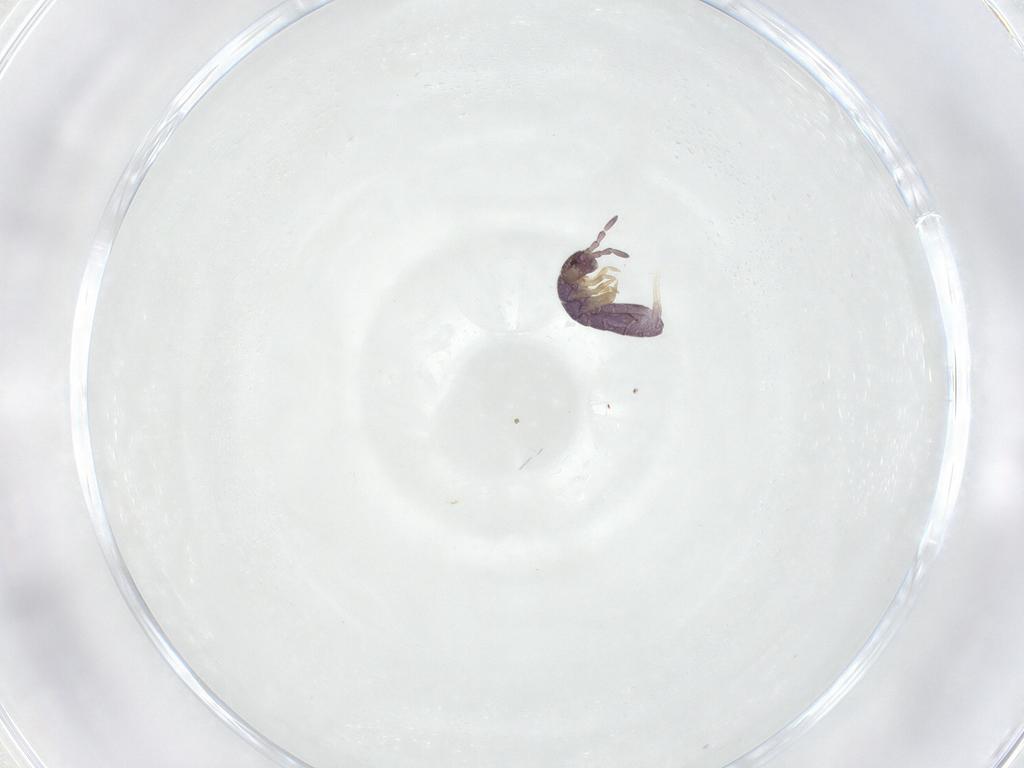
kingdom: Animalia
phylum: Arthropoda
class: Collembola
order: Entomobryomorpha
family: Isotomidae
